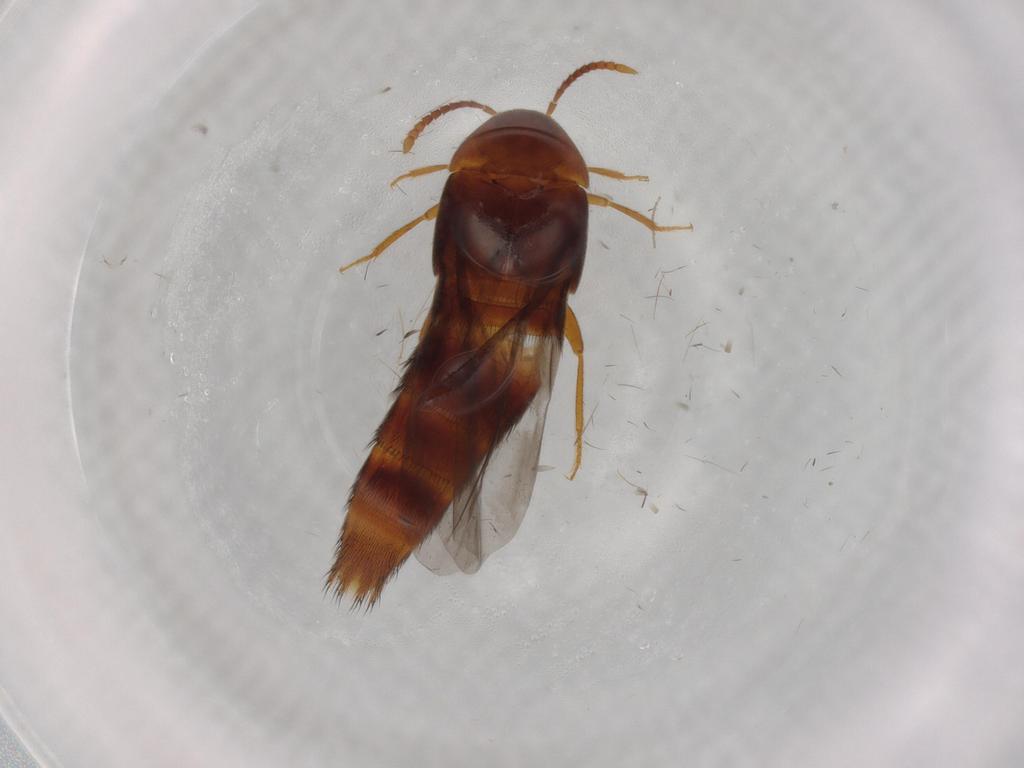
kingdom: Animalia
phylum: Arthropoda
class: Insecta
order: Coleoptera
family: Staphylinidae
